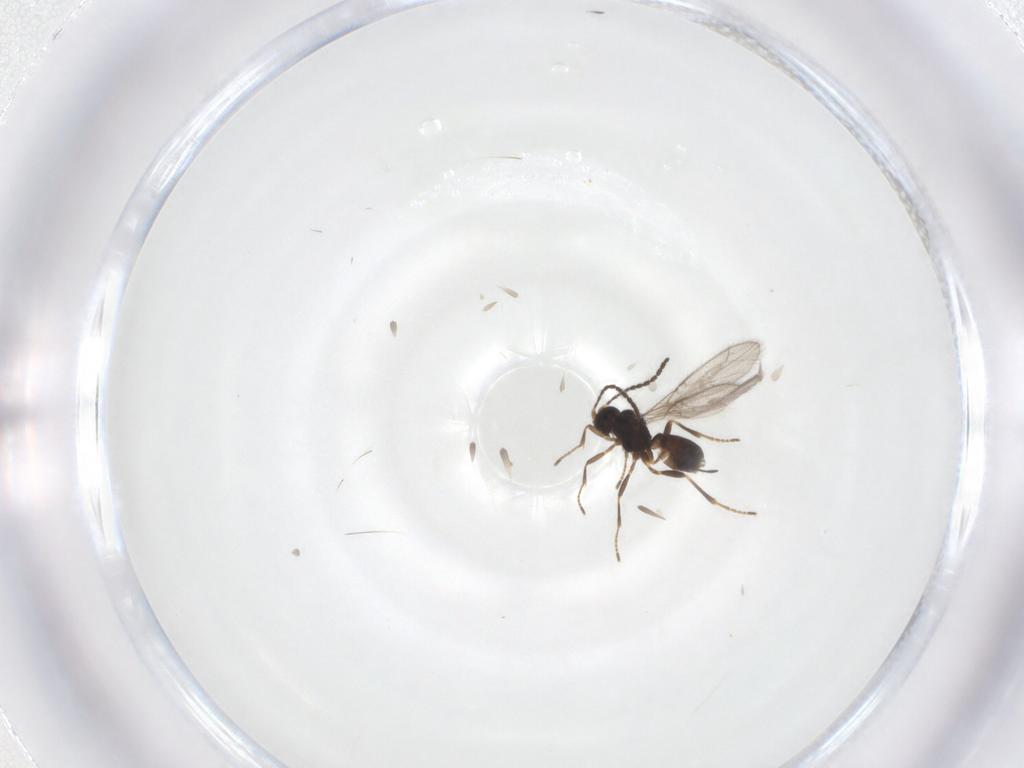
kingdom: Animalia
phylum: Arthropoda
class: Insecta
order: Hymenoptera
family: Braconidae
